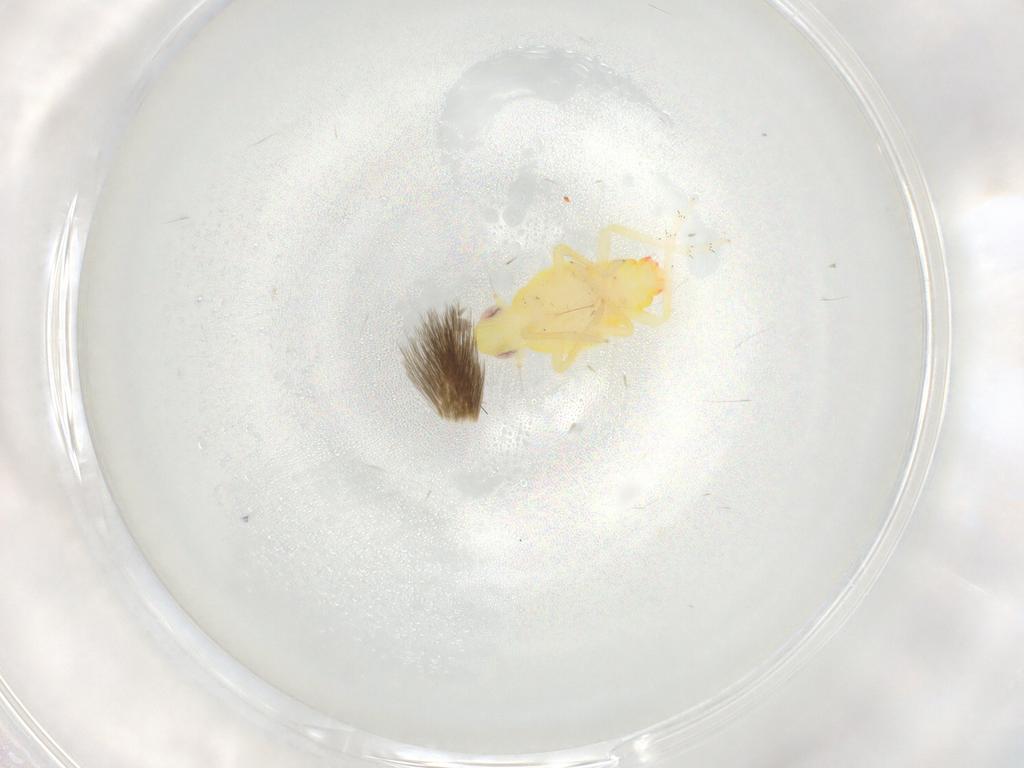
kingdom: Animalia
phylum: Arthropoda
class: Insecta
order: Hemiptera
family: Tropiduchidae
